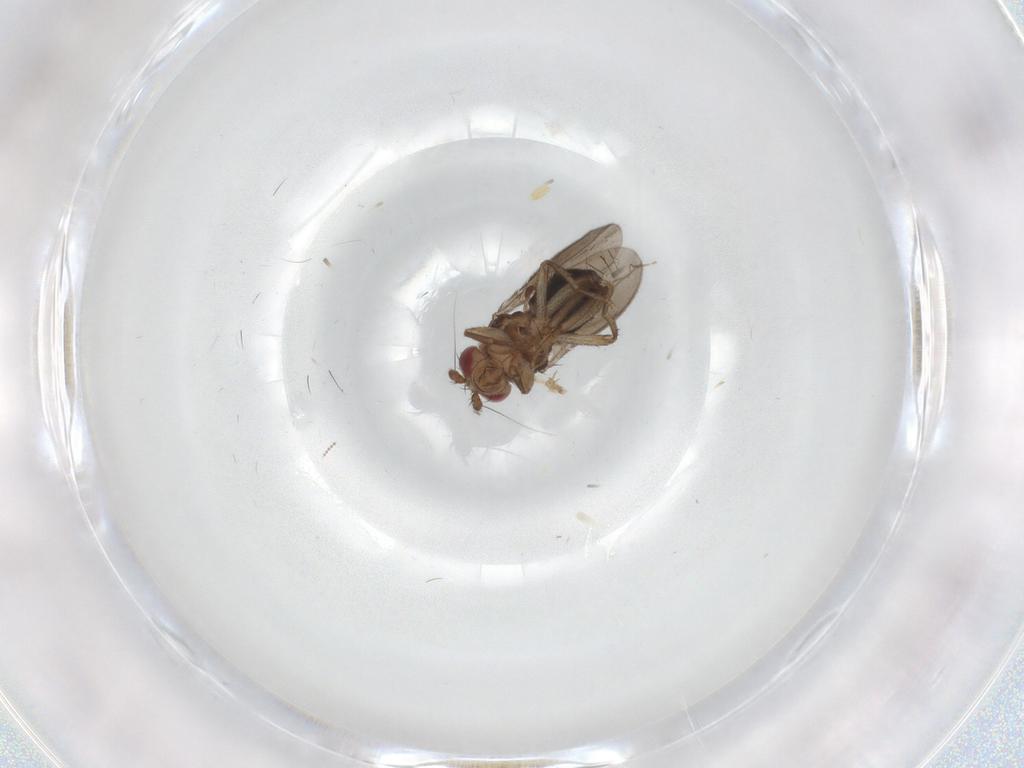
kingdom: Animalia
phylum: Arthropoda
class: Insecta
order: Diptera
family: Sphaeroceridae
